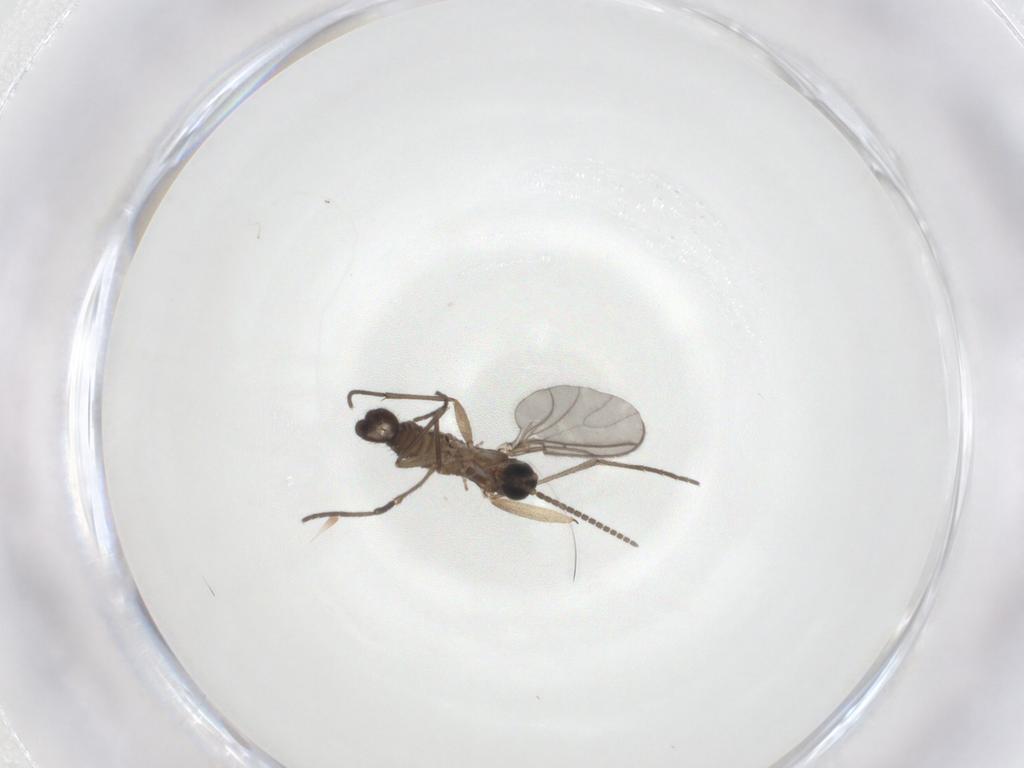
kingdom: Animalia
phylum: Arthropoda
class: Insecta
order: Diptera
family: Sciaridae
